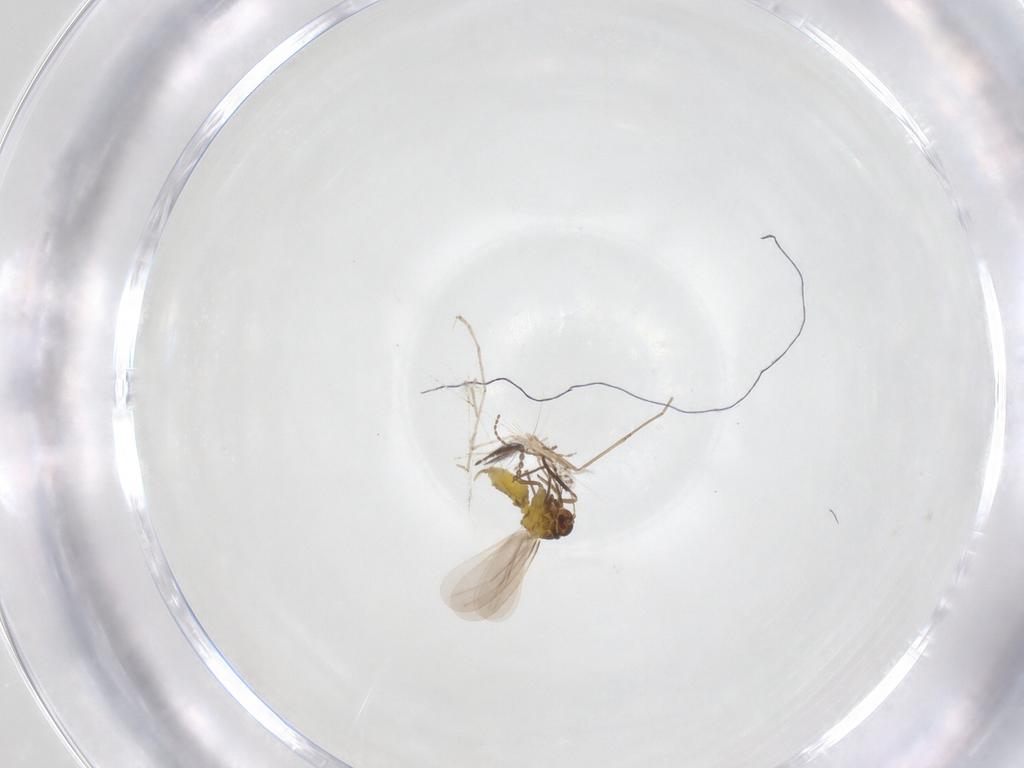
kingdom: Animalia
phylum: Arthropoda
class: Insecta
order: Hemiptera
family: Aleyrodidae
